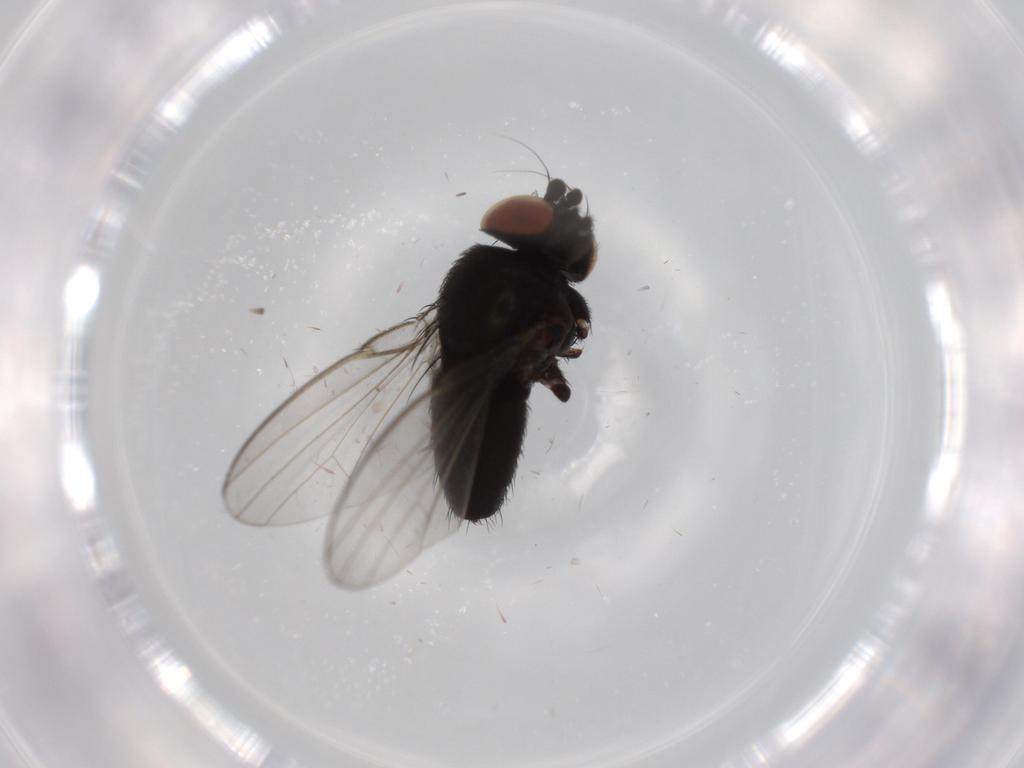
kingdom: Animalia
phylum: Arthropoda
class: Insecta
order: Diptera
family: Milichiidae
